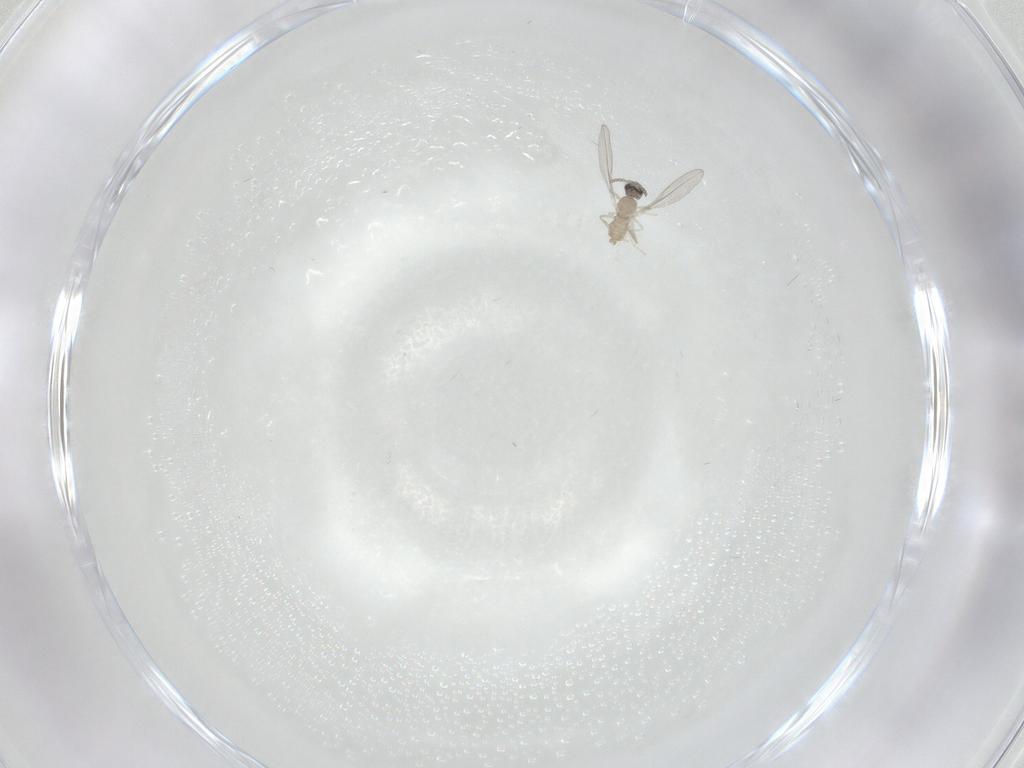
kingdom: Animalia
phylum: Arthropoda
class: Insecta
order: Diptera
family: Cecidomyiidae
